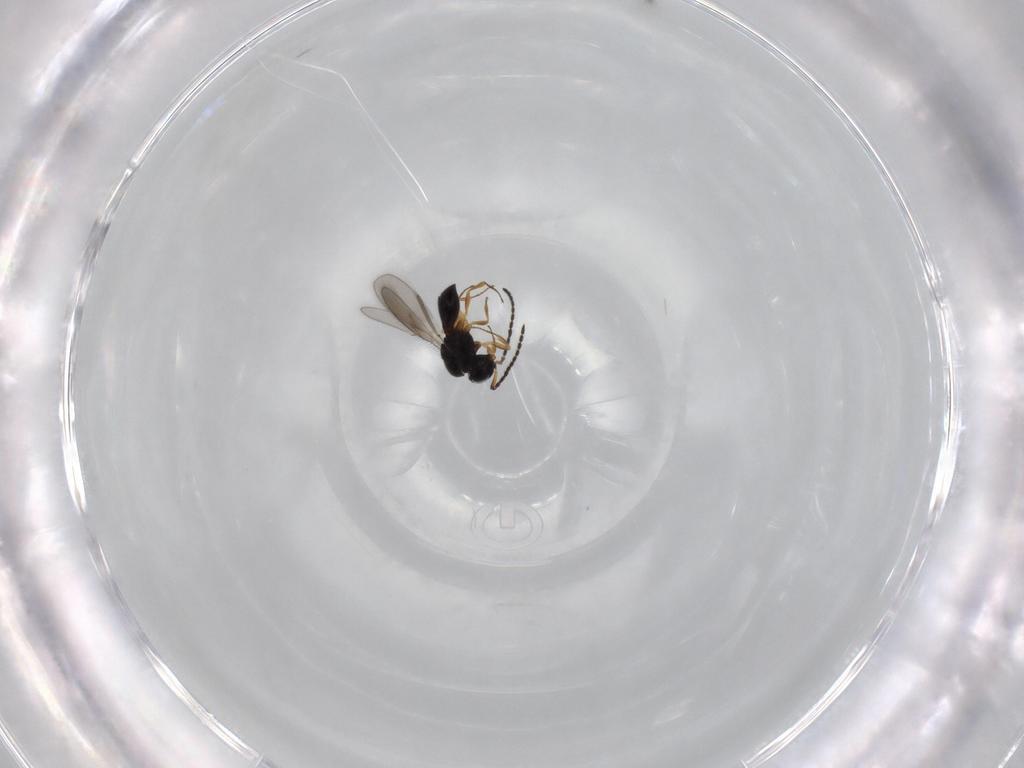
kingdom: Animalia
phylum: Arthropoda
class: Insecta
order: Hymenoptera
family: Scelionidae
